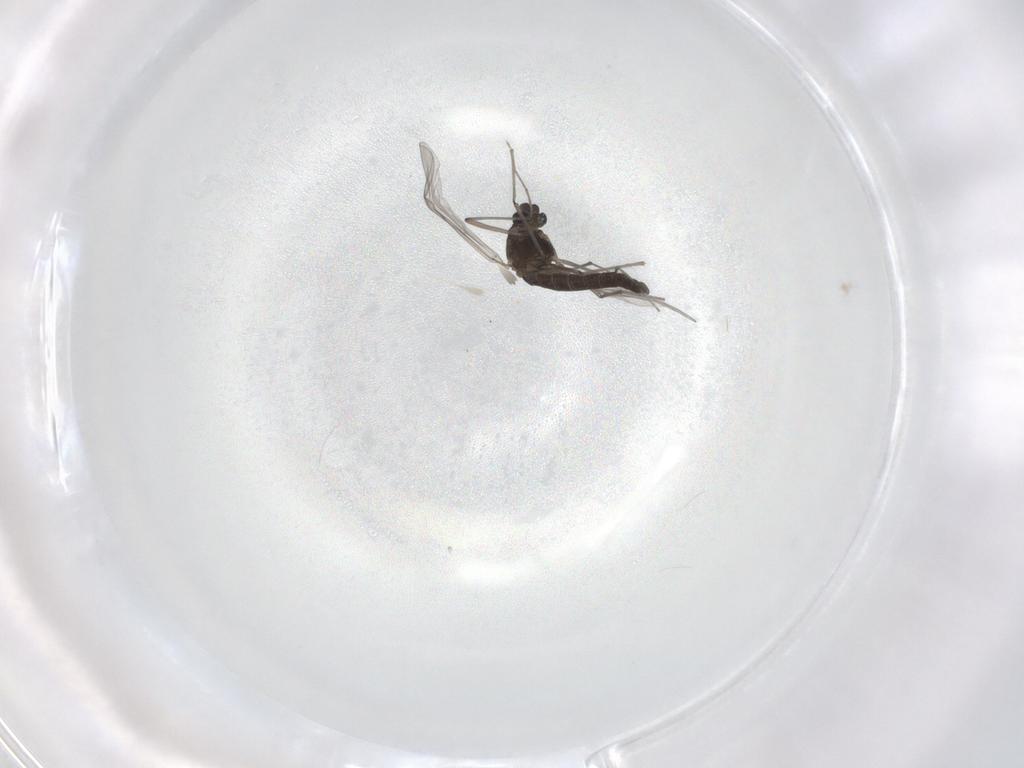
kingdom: Animalia
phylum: Arthropoda
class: Insecta
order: Diptera
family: Chironomidae
